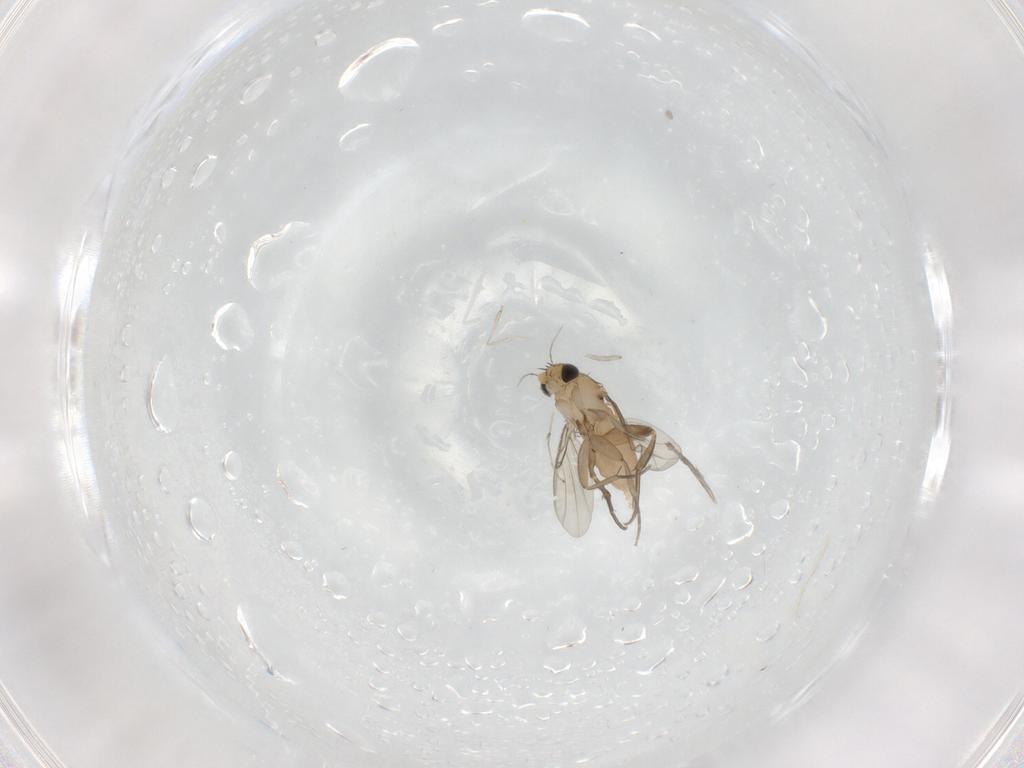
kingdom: Animalia
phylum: Arthropoda
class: Insecta
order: Diptera
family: Phoridae
